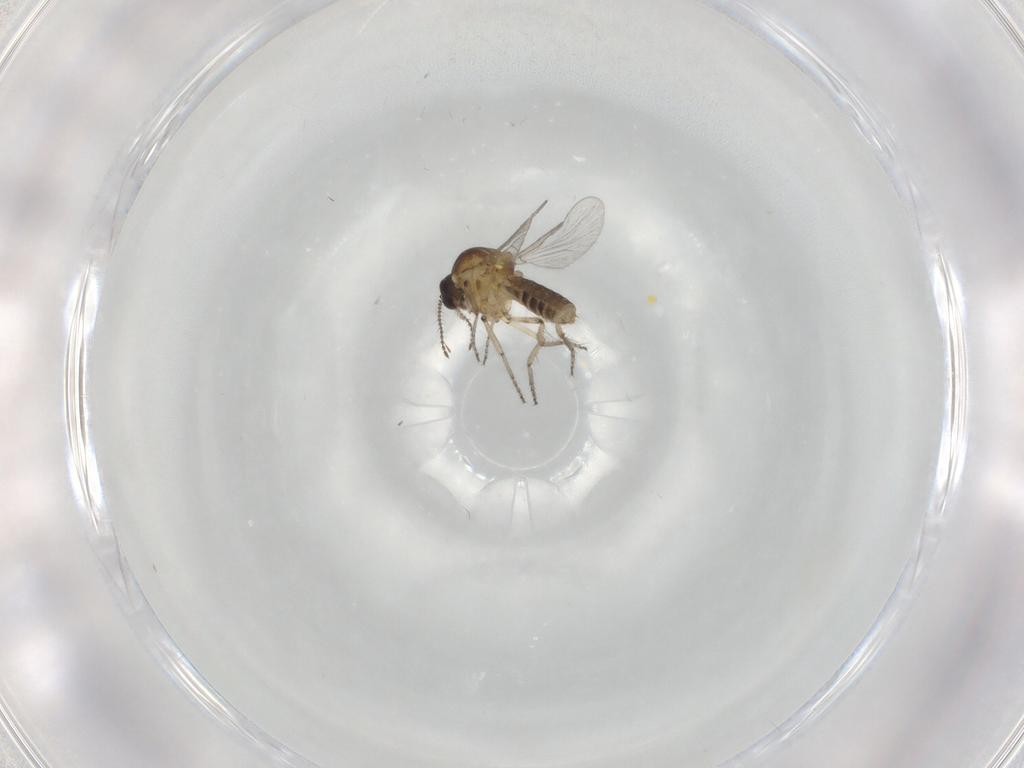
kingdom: Animalia
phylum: Arthropoda
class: Insecta
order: Diptera
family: Ceratopogonidae
